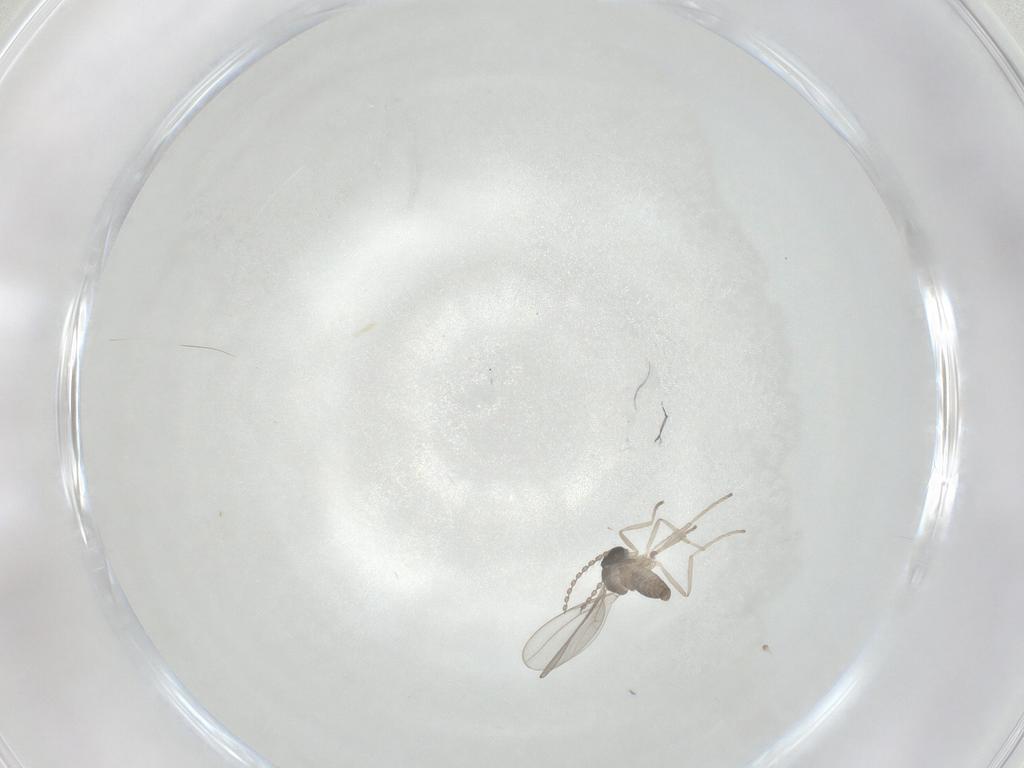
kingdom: Animalia
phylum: Arthropoda
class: Insecta
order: Diptera
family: Cecidomyiidae
